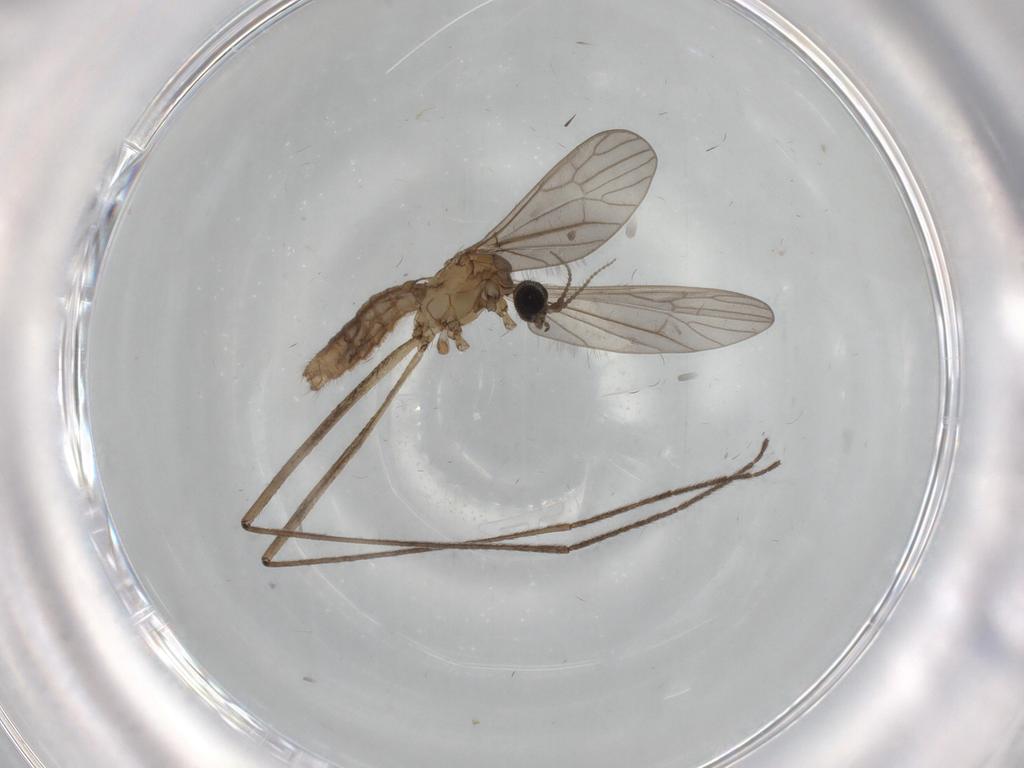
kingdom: Animalia
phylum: Arthropoda
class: Insecta
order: Diptera
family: Limoniidae
